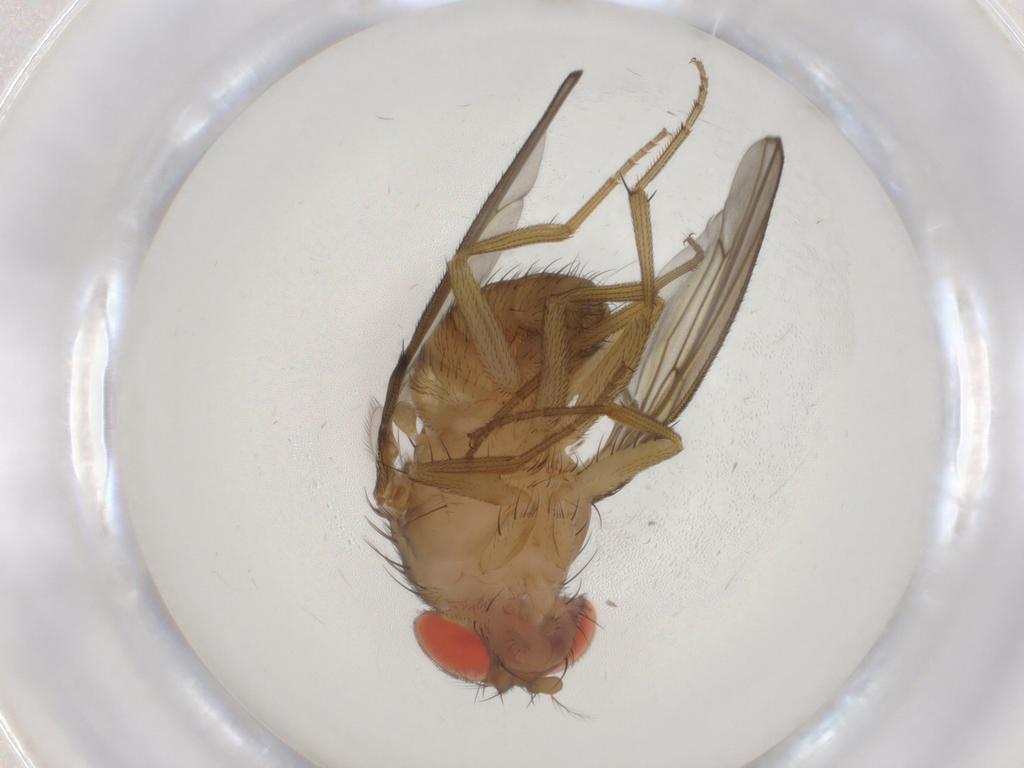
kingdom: Animalia
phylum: Arthropoda
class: Insecta
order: Diptera
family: Drosophilidae
